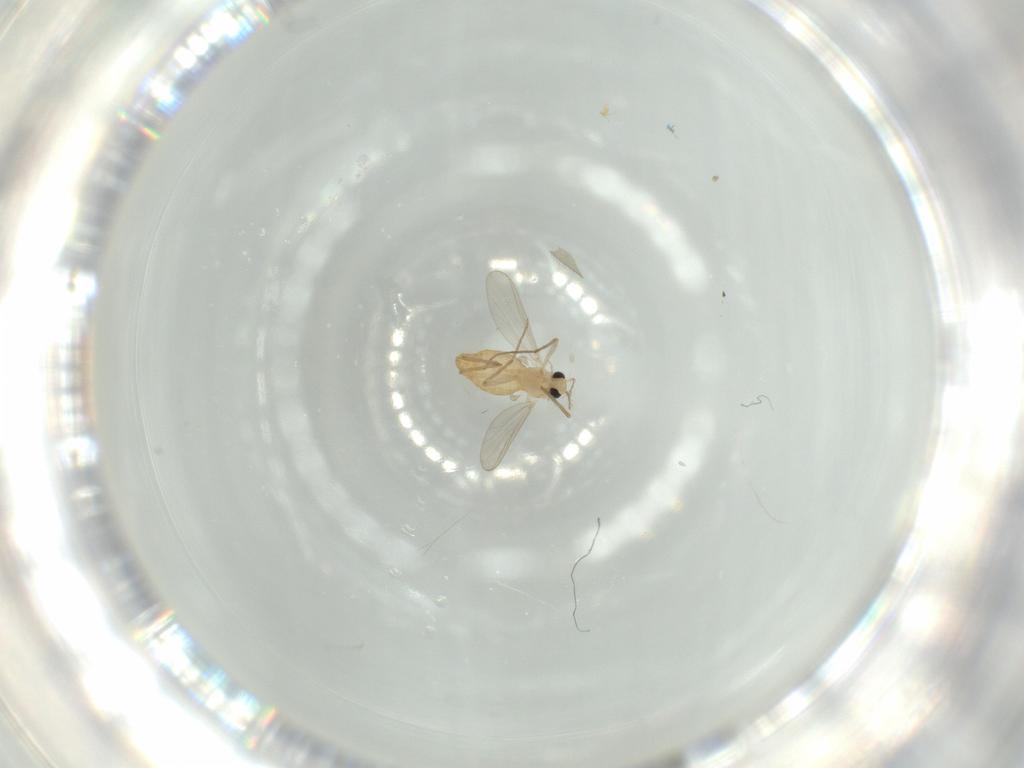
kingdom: Animalia
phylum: Arthropoda
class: Insecta
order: Diptera
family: Chironomidae
